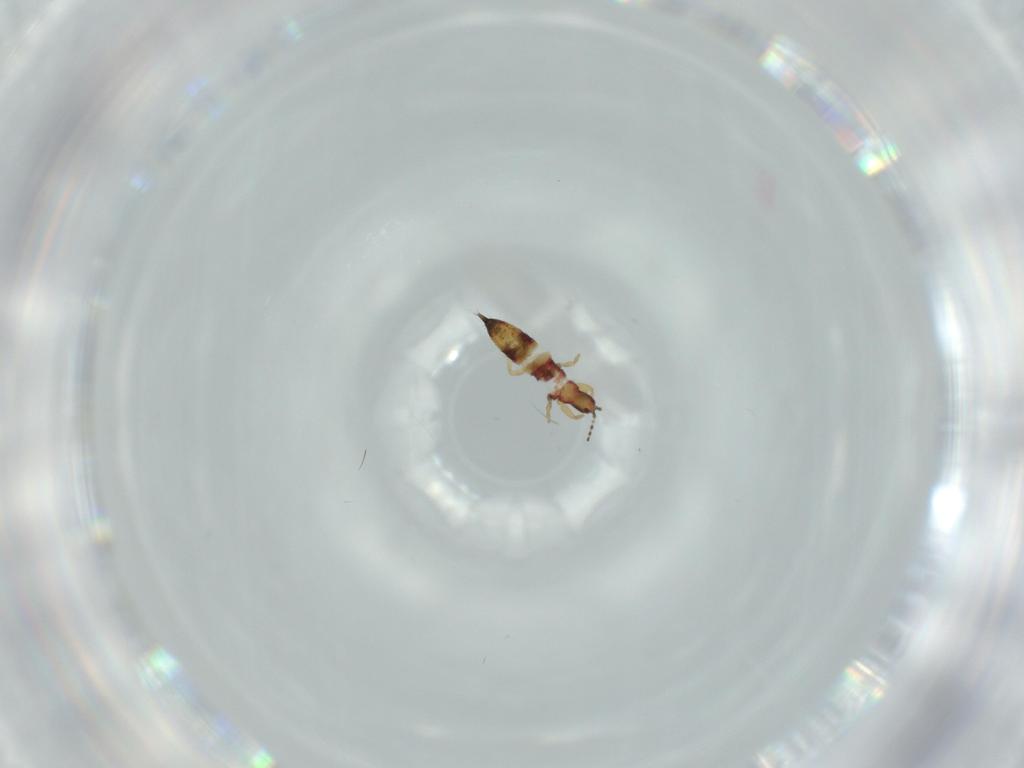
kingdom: Animalia
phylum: Arthropoda
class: Insecta
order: Thysanoptera
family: Phlaeothripidae
